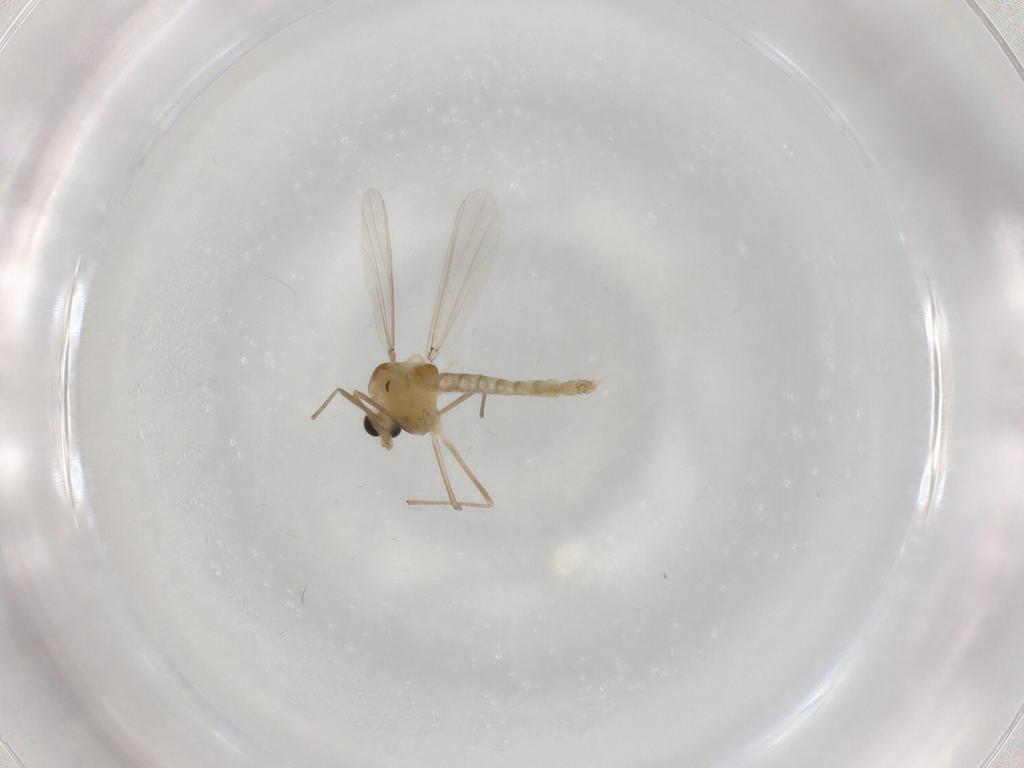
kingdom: Animalia
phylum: Arthropoda
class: Insecta
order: Diptera
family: Chironomidae
